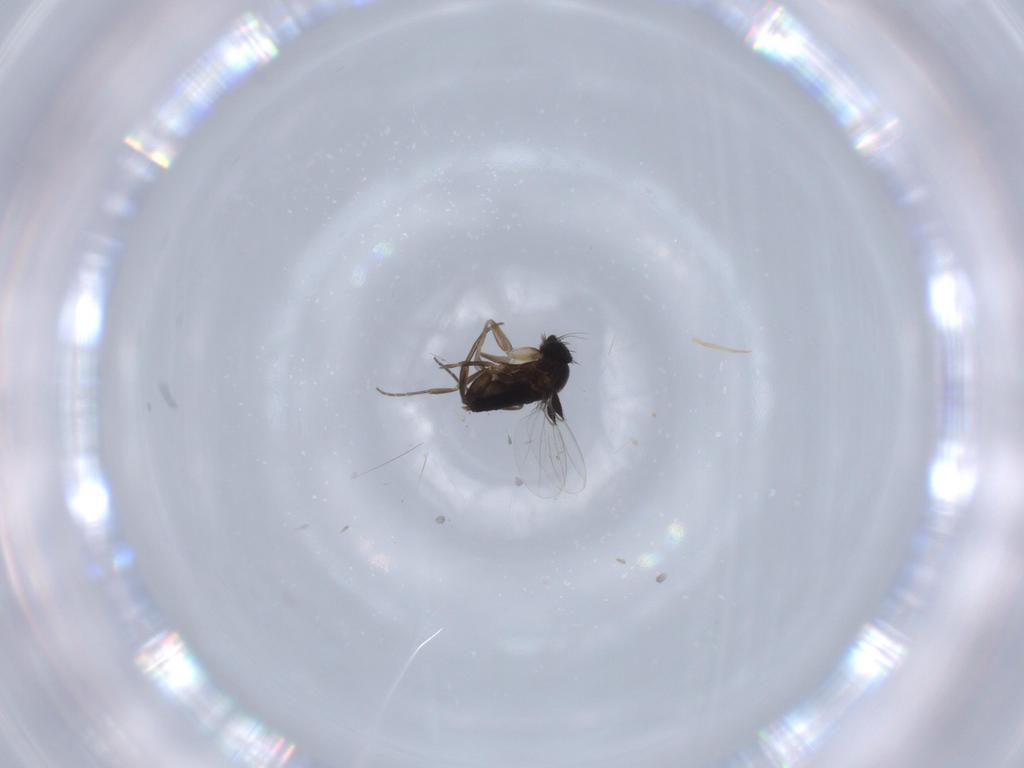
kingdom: Animalia
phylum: Arthropoda
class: Insecta
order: Diptera
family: Phoridae
